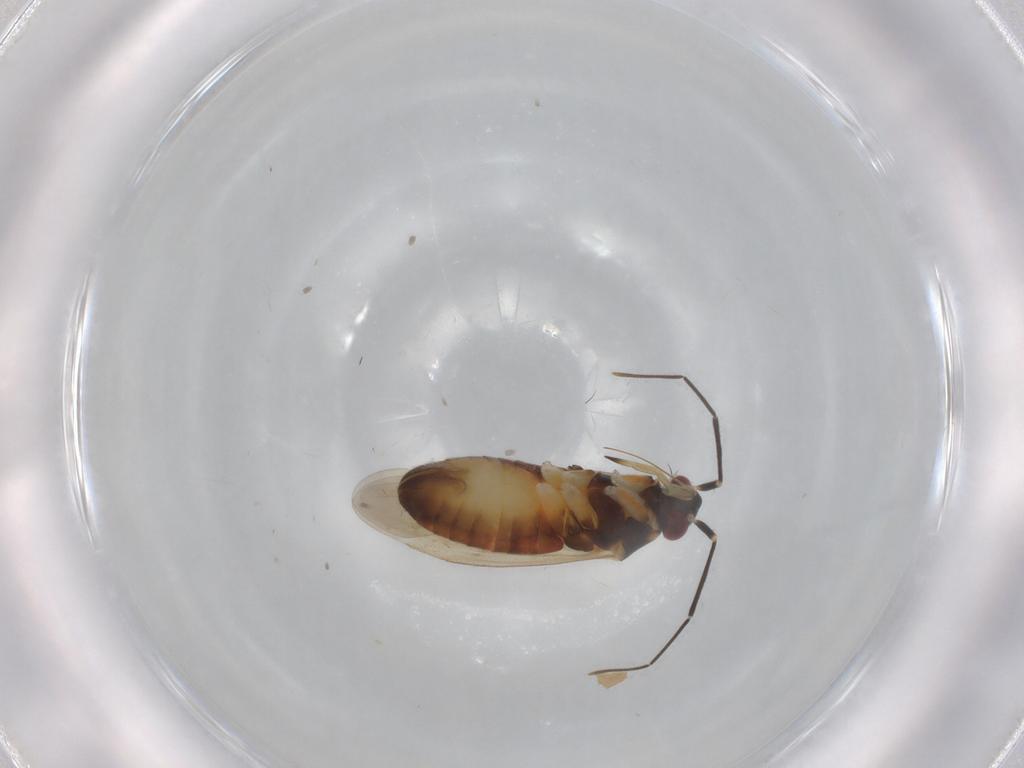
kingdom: Animalia
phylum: Arthropoda
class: Insecta
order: Hemiptera
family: Miridae
